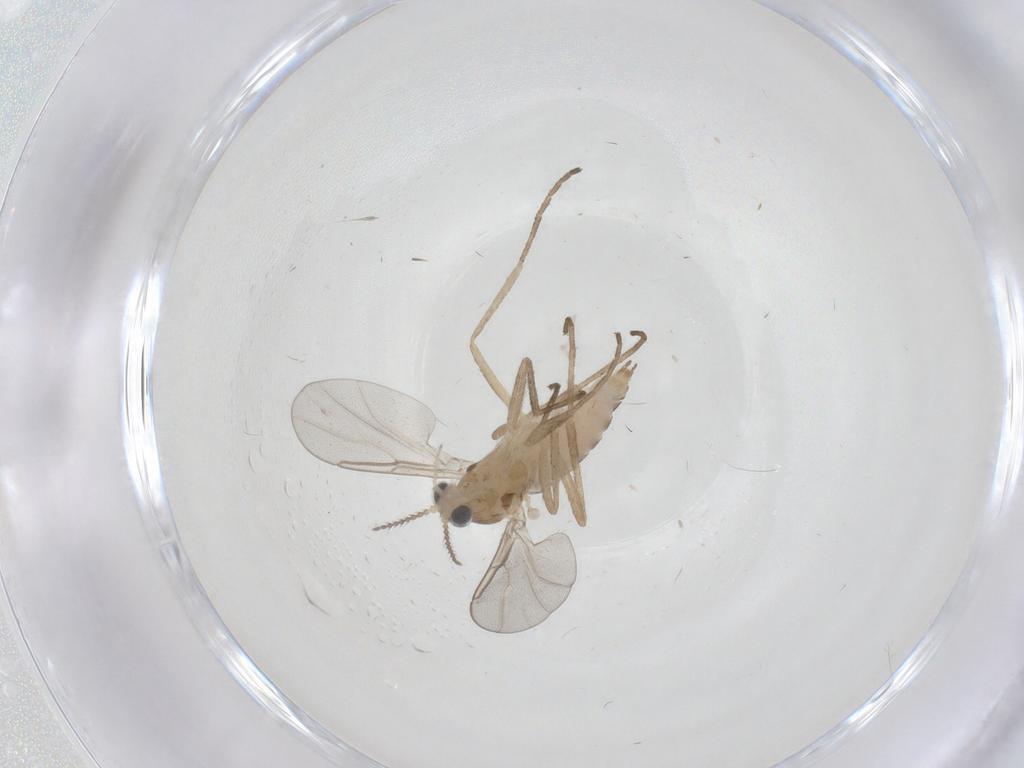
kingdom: Animalia
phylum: Arthropoda
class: Insecta
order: Diptera
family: Cecidomyiidae
